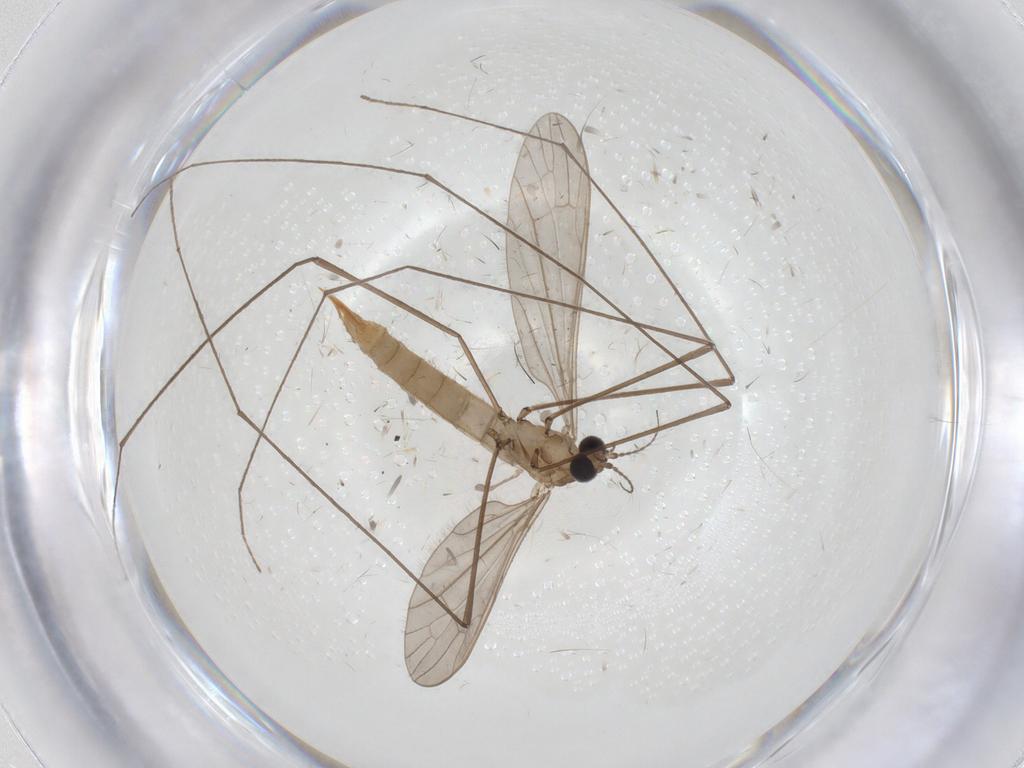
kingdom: Animalia
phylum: Arthropoda
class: Insecta
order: Diptera
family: Limoniidae
